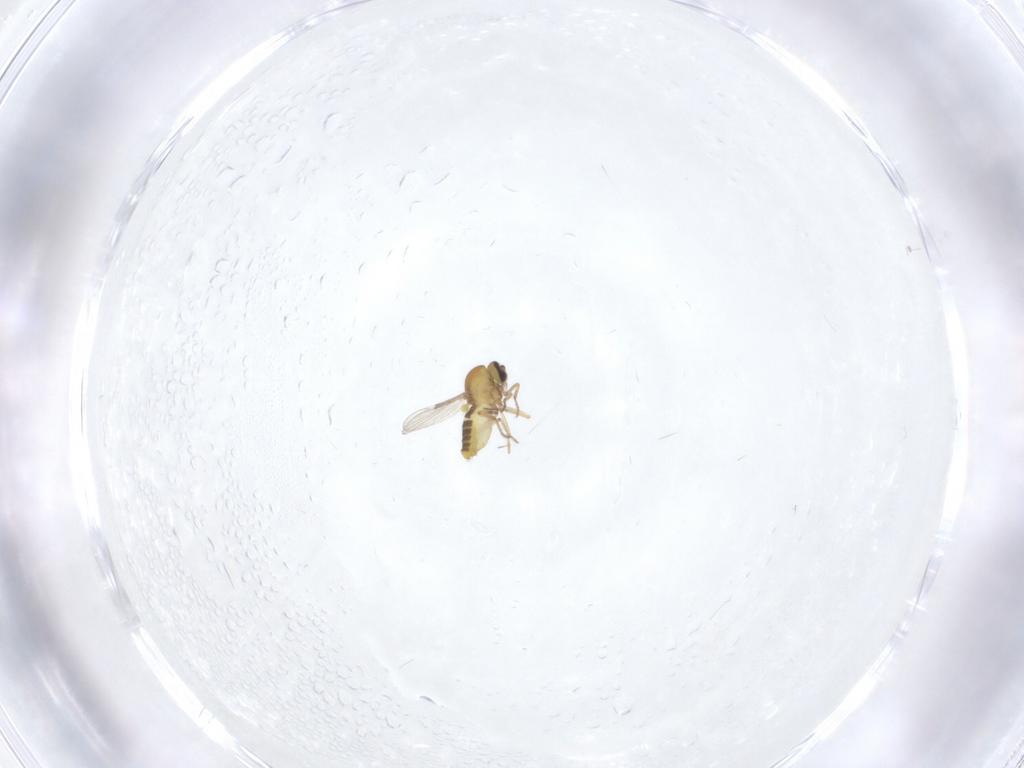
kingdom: Animalia
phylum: Arthropoda
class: Insecta
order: Diptera
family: Ceratopogonidae
